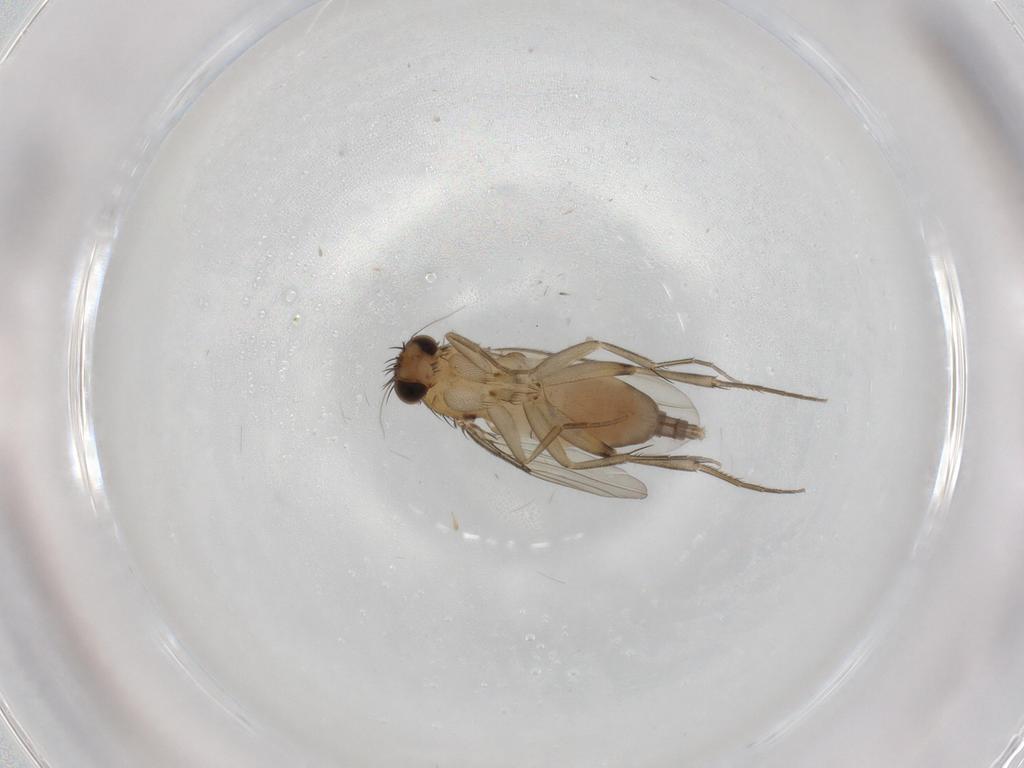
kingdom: Animalia
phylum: Arthropoda
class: Insecta
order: Diptera
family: Phoridae
